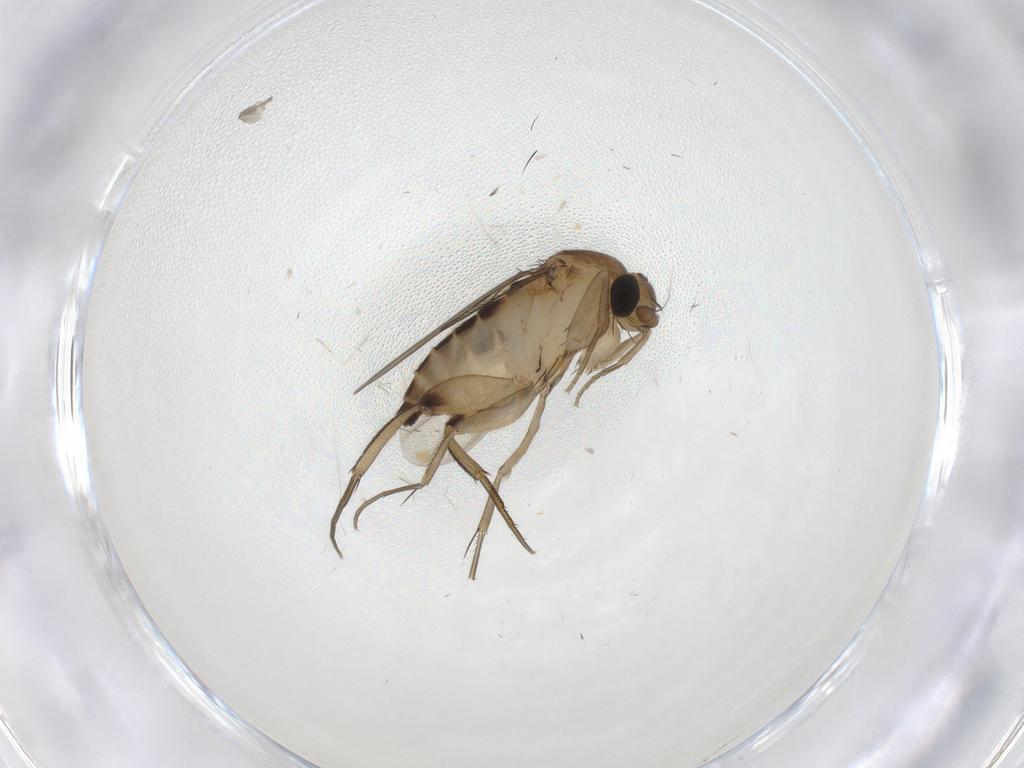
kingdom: Animalia
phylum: Arthropoda
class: Insecta
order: Diptera
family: Phoridae
